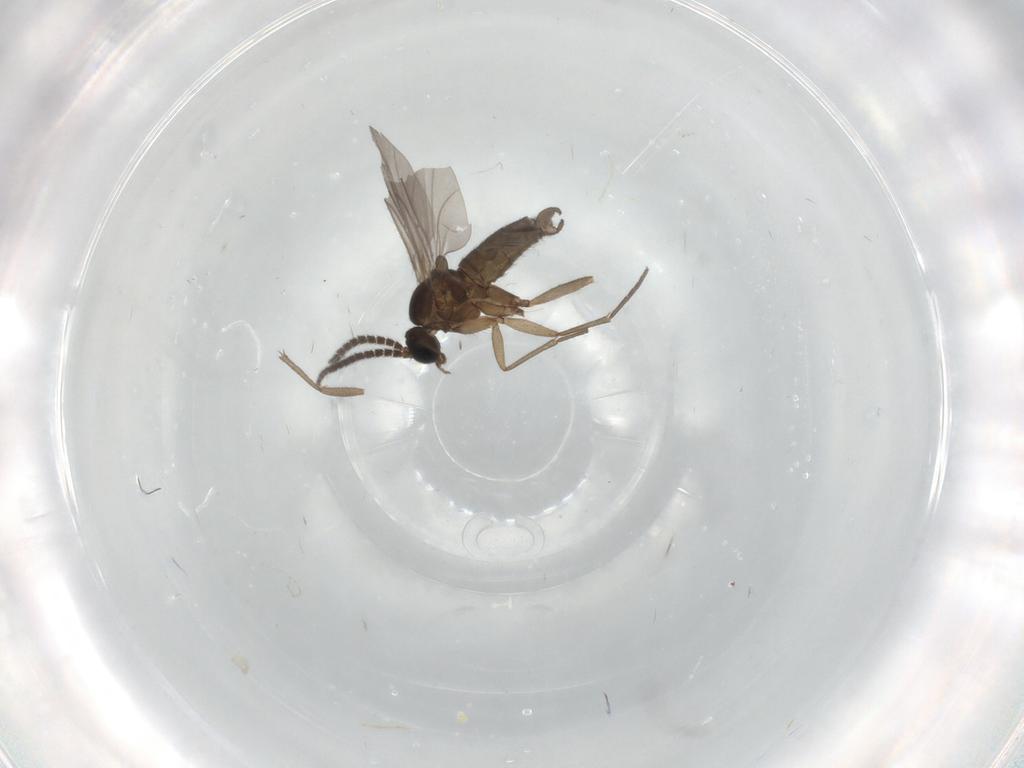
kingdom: Animalia
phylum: Arthropoda
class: Insecta
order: Diptera
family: Sciaridae
